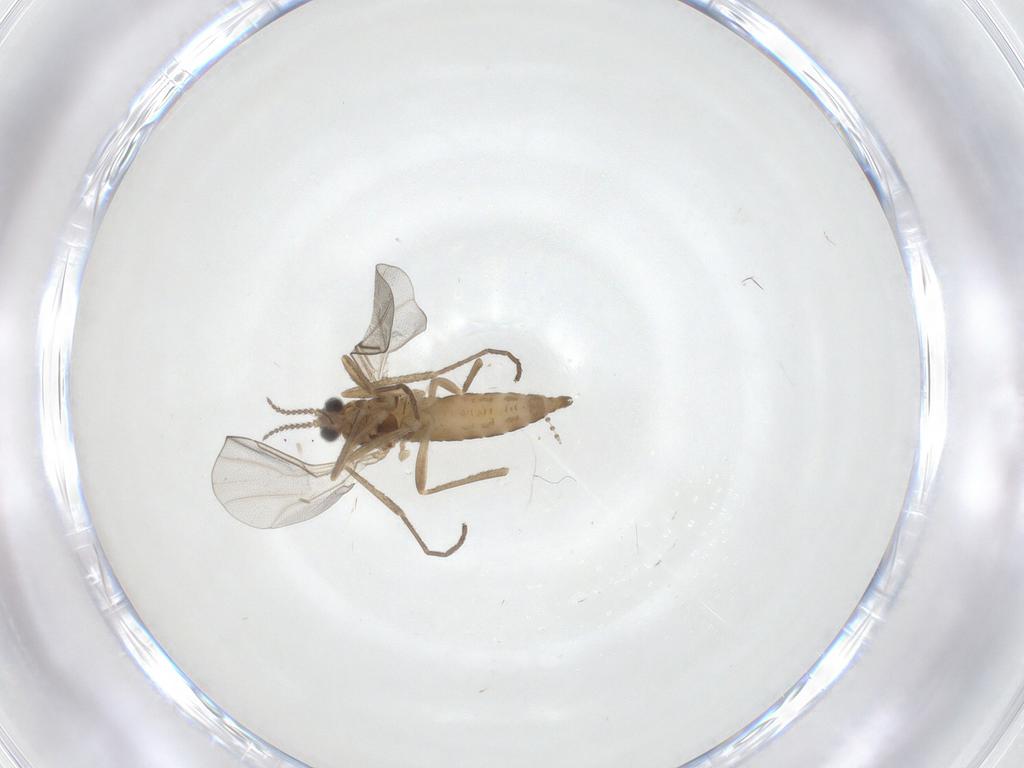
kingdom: Animalia
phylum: Arthropoda
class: Insecta
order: Diptera
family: Cecidomyiidae
